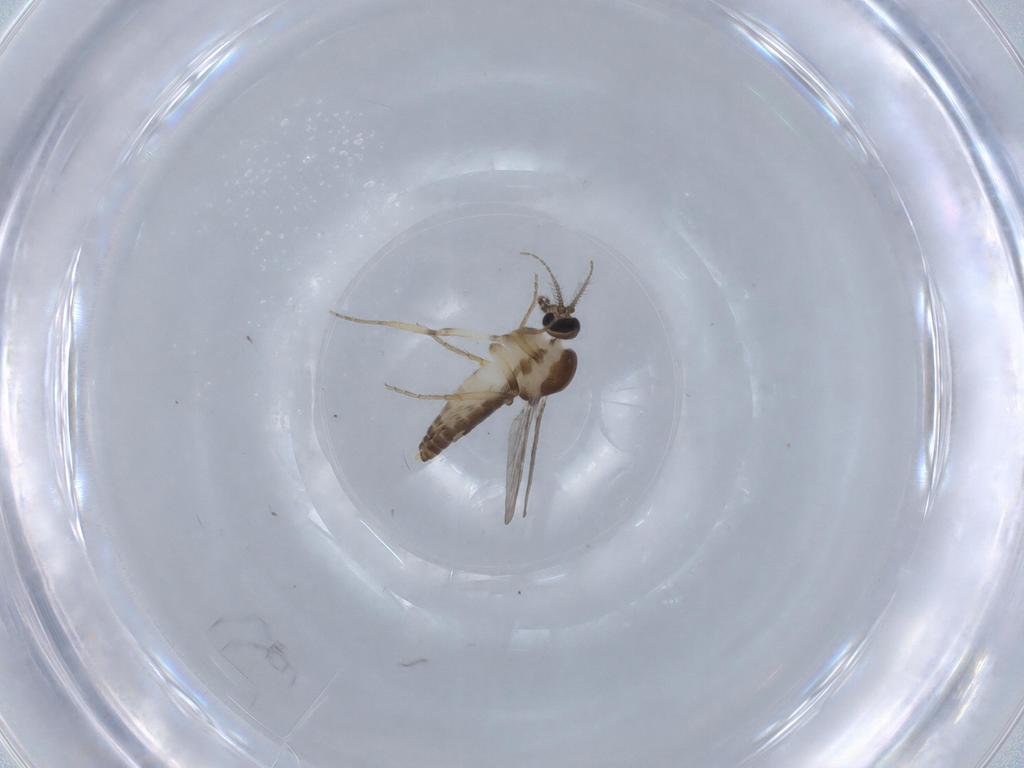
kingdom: Animalia
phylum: Arthropoda
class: Insecta
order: Diptera
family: Ceratopogonidae
